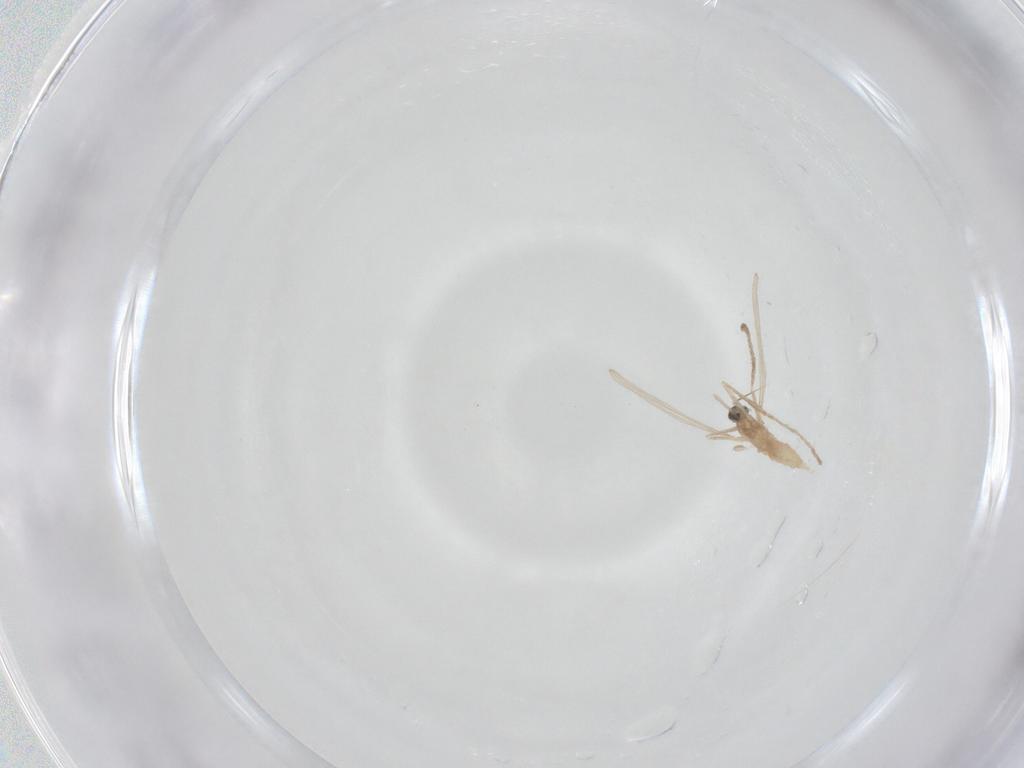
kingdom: Animalia
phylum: Arthropoda
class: Insecta
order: Diptera
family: Cecidomyiidae
